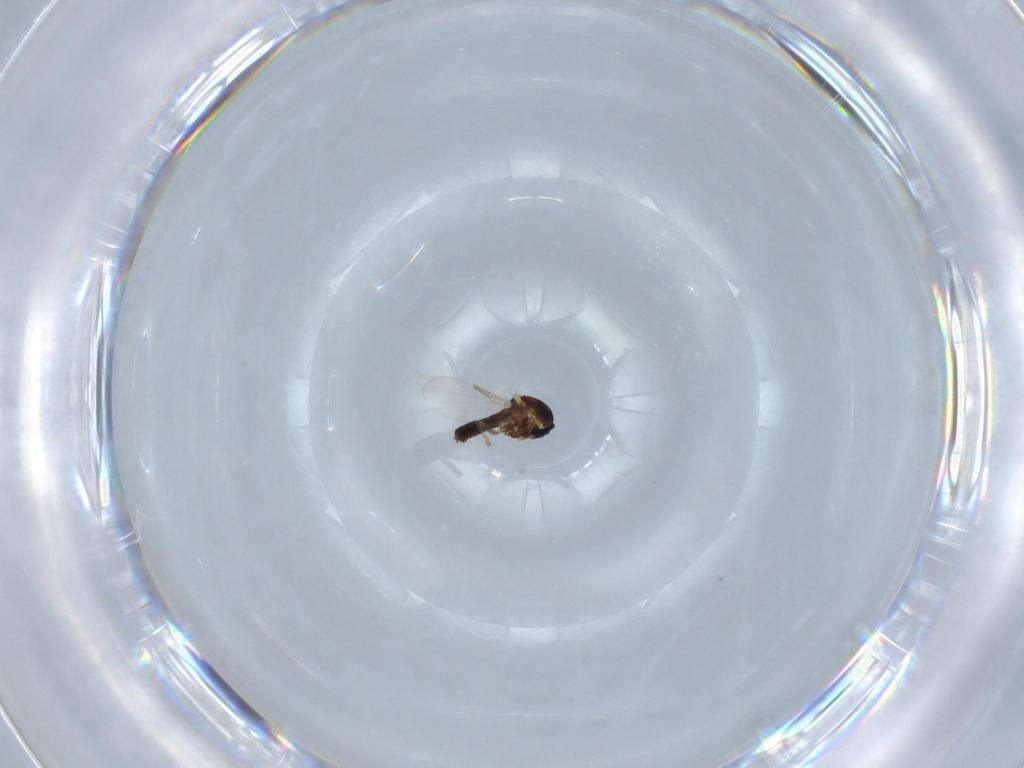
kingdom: Animalia
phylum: Arthropoda
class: Insecta
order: Diptera
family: Ceratopogonidae
